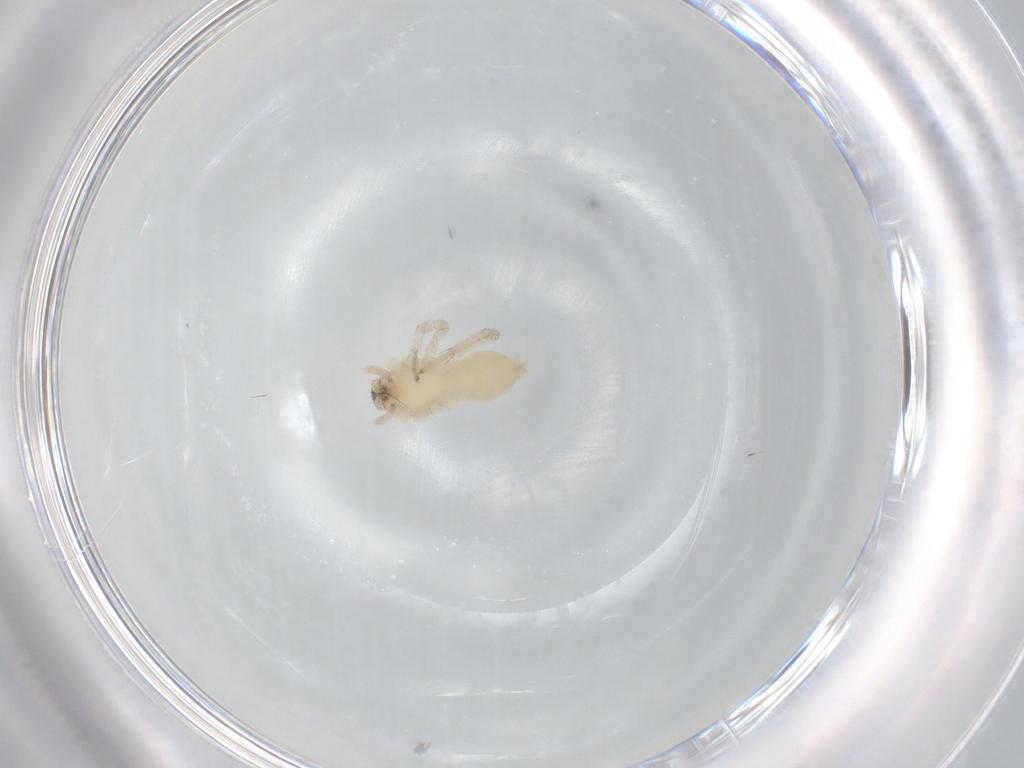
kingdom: Animalia
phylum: Arthropoda
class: Arachnida
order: Araneae
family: Anyphaenidae
